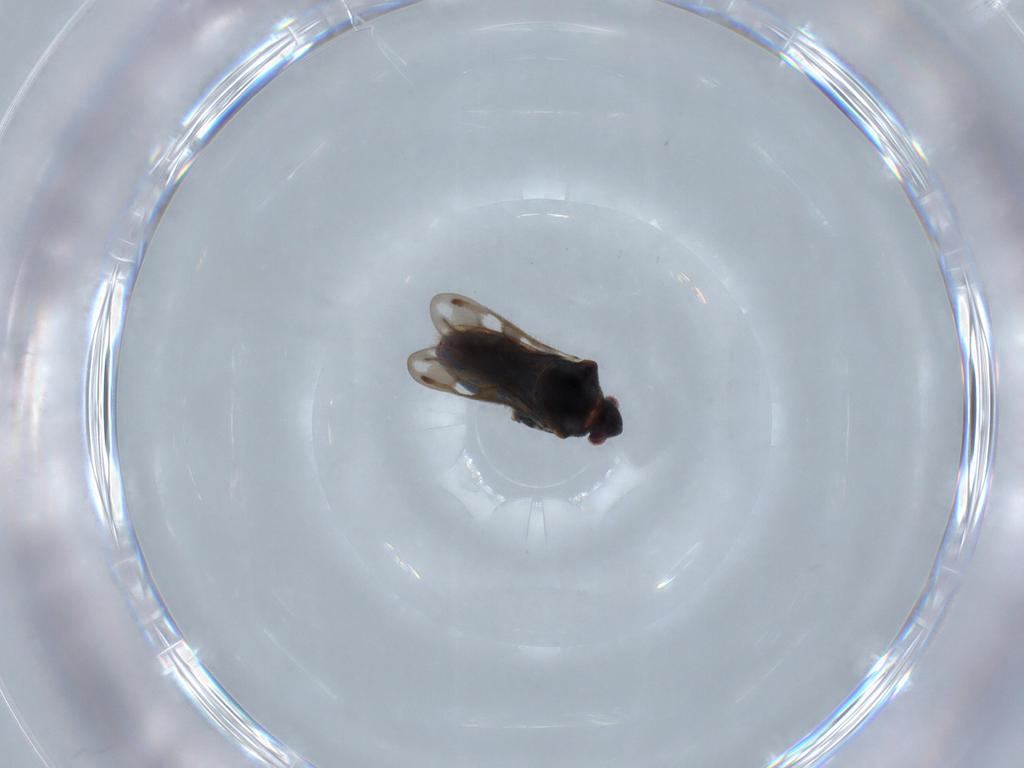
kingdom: Animalia
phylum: Arthropoda
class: Insecta
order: Hemiptera
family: Veliidae
